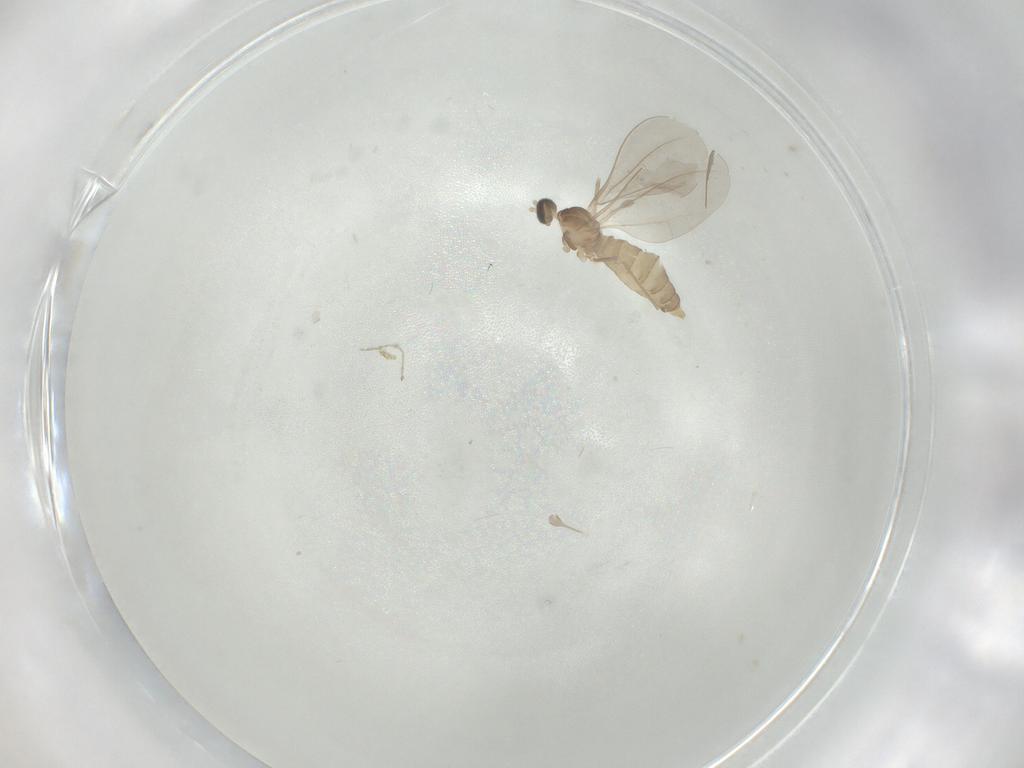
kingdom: Animalia
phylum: Arthropoda
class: Insecta
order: Diptera
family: Cecidomyiidae
